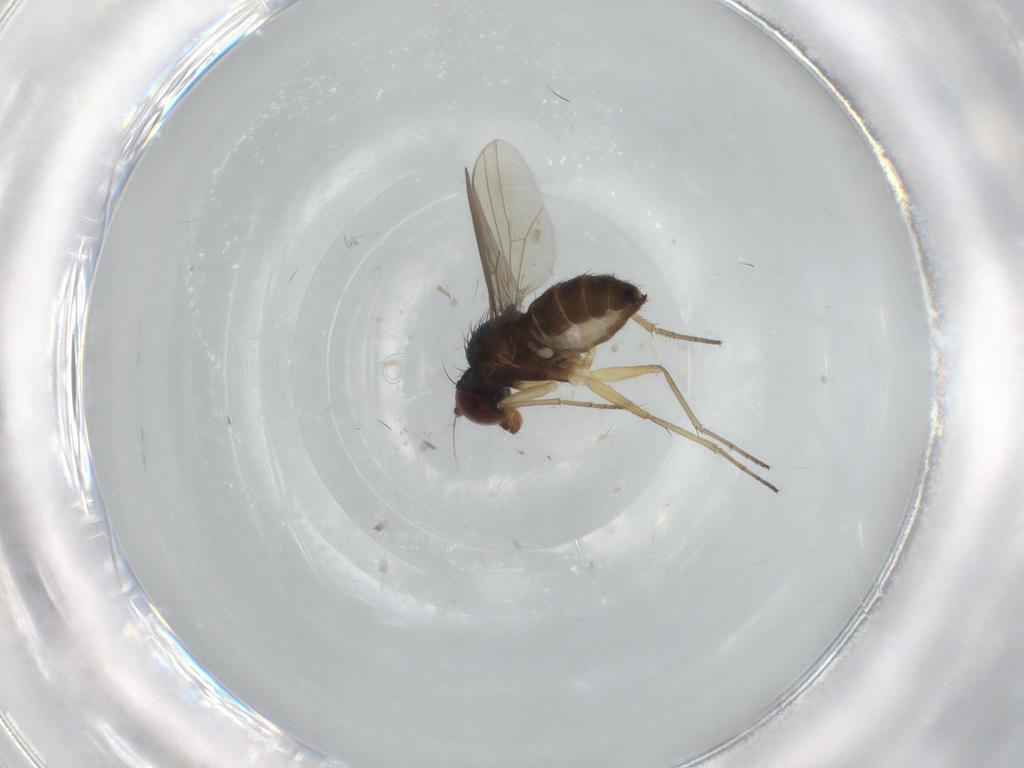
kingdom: Animalia
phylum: Arthropoda
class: Insecta
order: Diptera
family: Dolichopodidae
